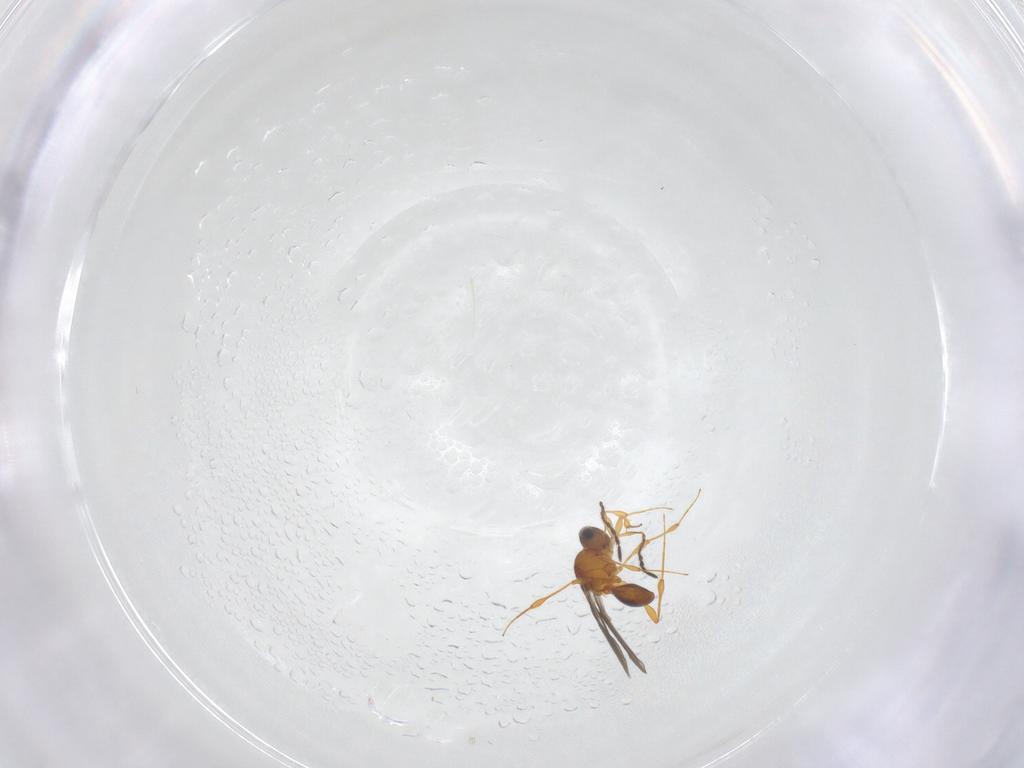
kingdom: Animalia
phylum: Arthropoda
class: Insecta
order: Hymenoptera
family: Platygastridae
